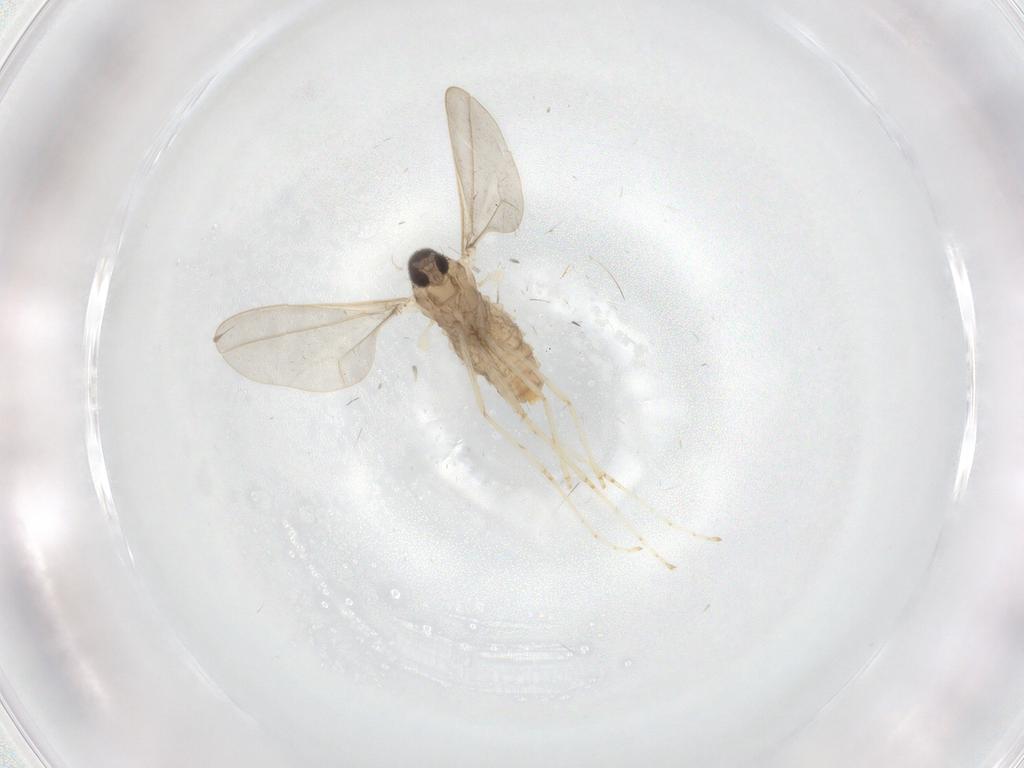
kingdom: Animalia
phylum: Arthropoda
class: Insecta
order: Diptera
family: Cecidomyiidae
